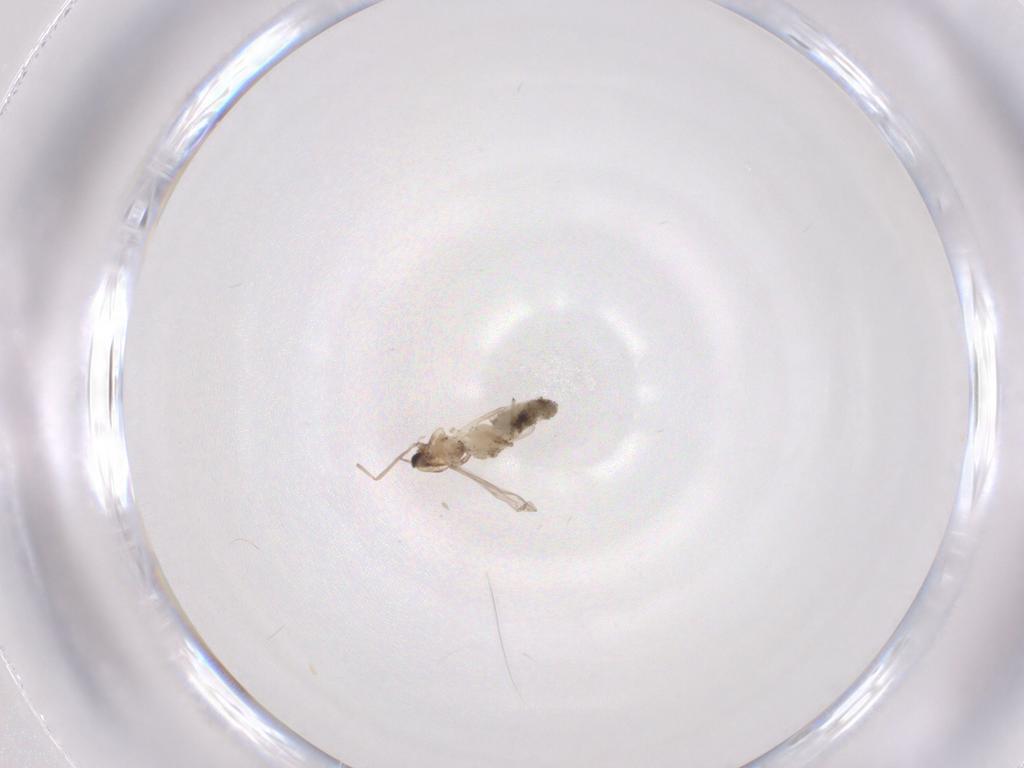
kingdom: Animalia
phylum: Arthropoda
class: Insecta
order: Diptera
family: Chironomidae
